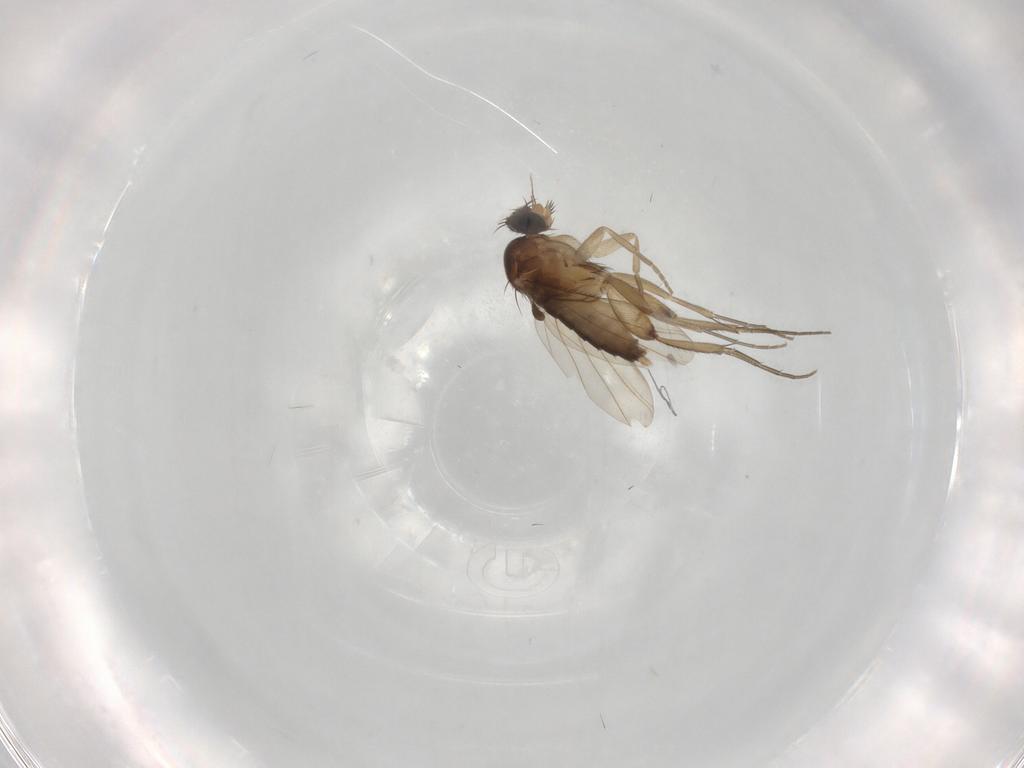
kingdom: Animalia
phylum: Arthropoda
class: Insecta
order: Diptera
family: Phoridae
